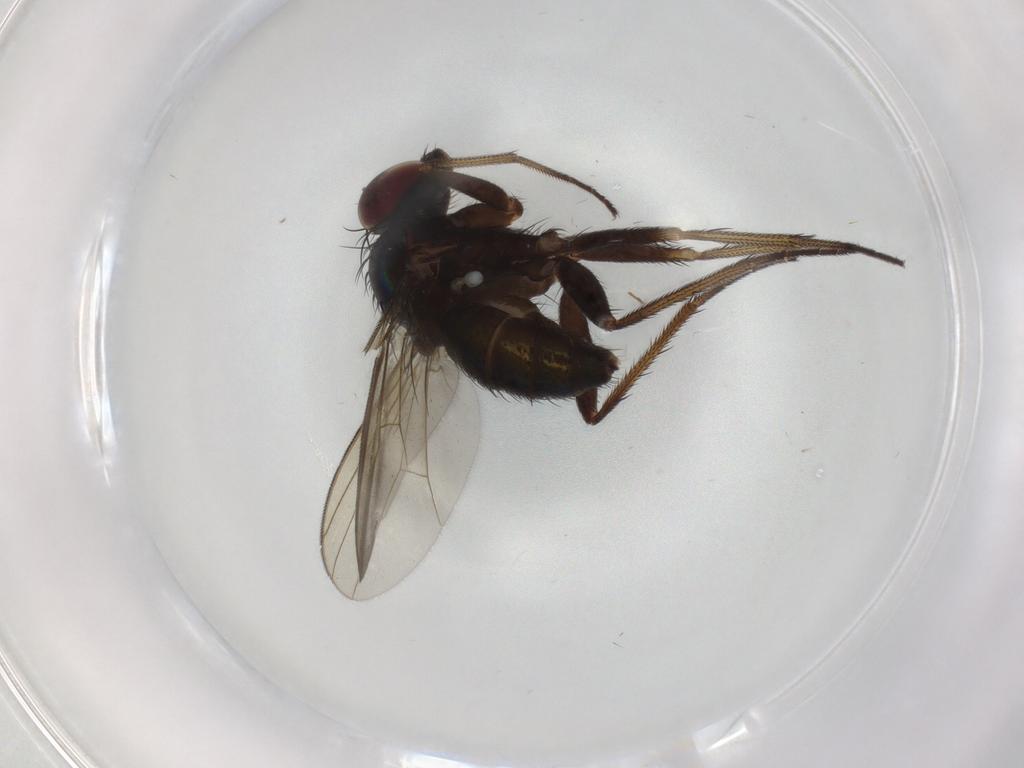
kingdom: Animalia
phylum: Arthropoda
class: Insecta
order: Diptera
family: Dolichopodidae
